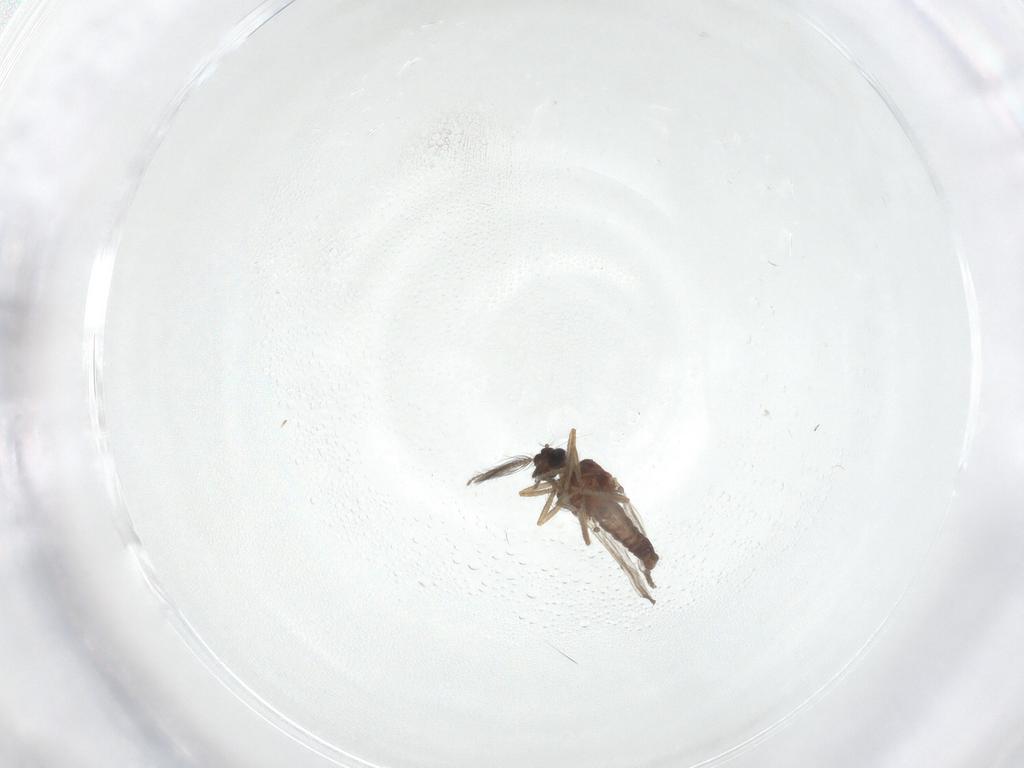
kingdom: Animalia
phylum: Arthropoda
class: Insecta
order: Diptera
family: Ceratopogonidae
